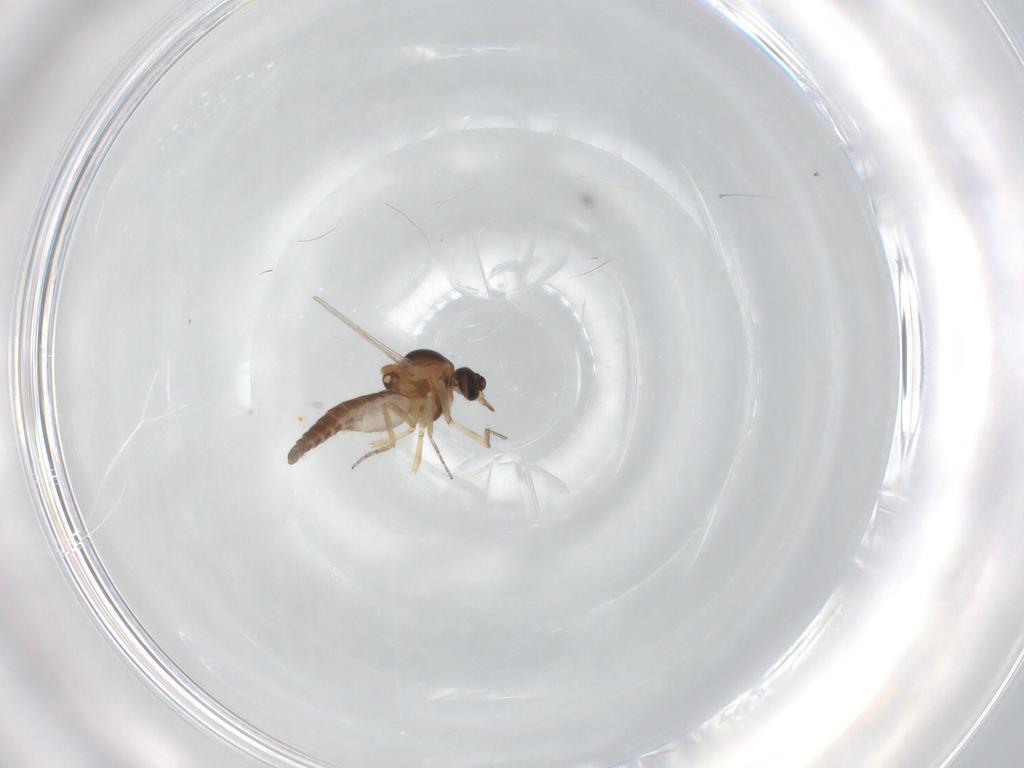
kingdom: Animalia
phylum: Arthropoda
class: Insecta
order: Diptera
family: Ceratopogonidae
